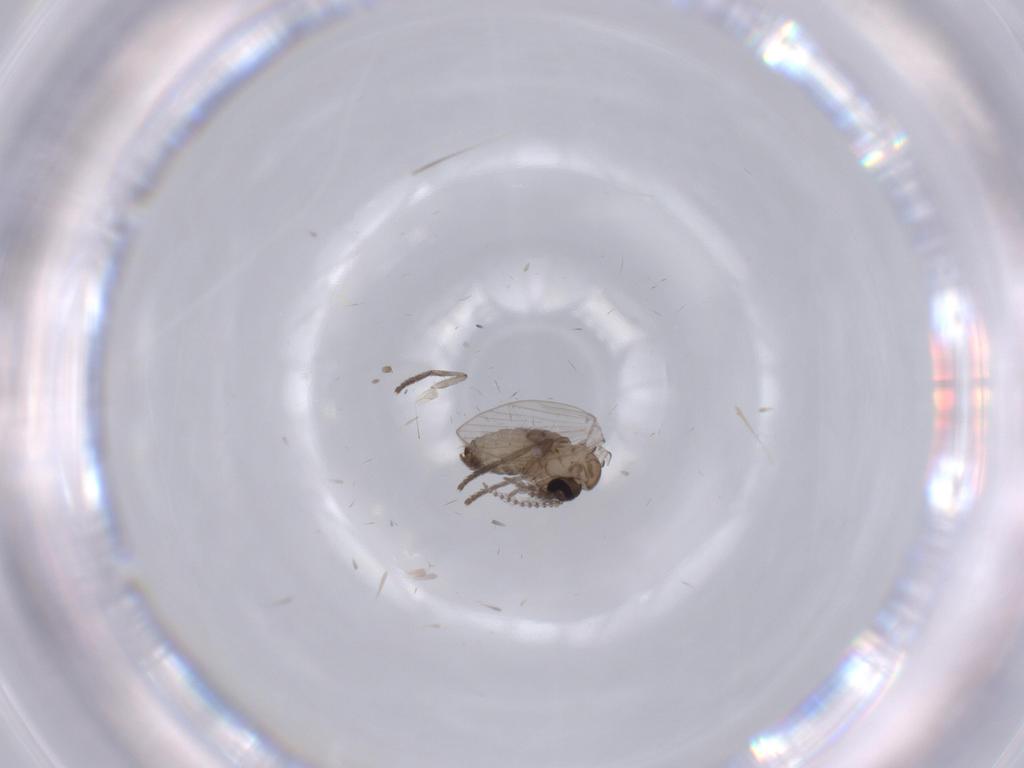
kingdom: Animalia
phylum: Arthropoda
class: Insecta
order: Diptera
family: Psychodidae
